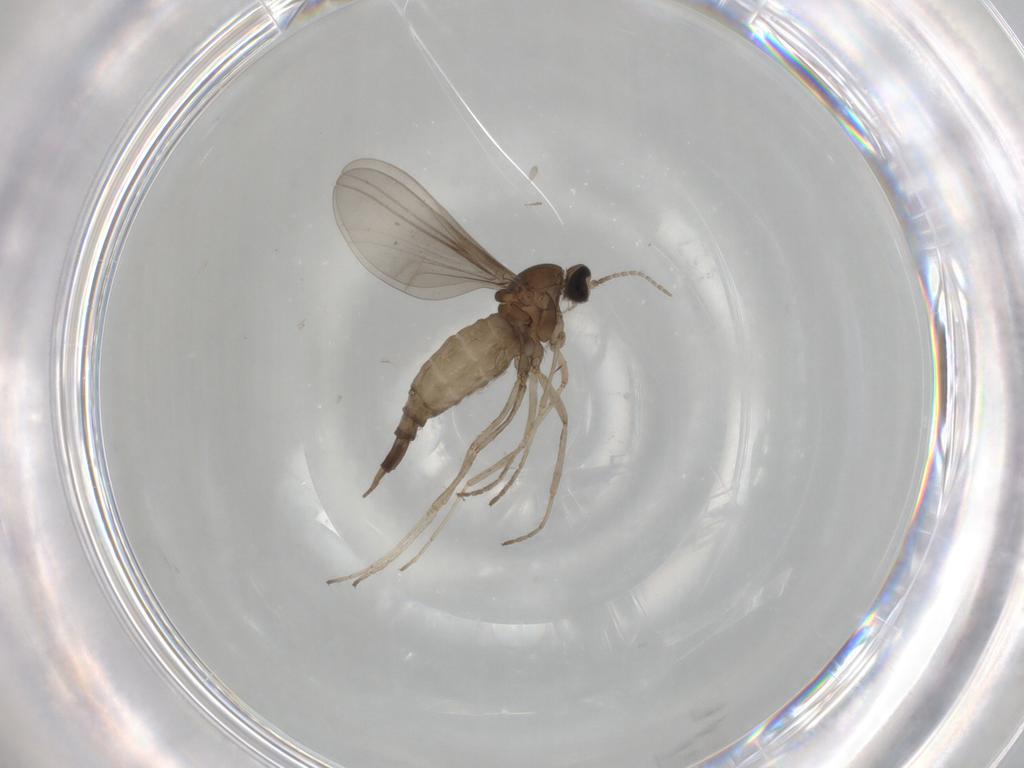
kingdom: Animalia
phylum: Arthropoda
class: Insecta
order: Diptera
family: Cecidomyiidae
